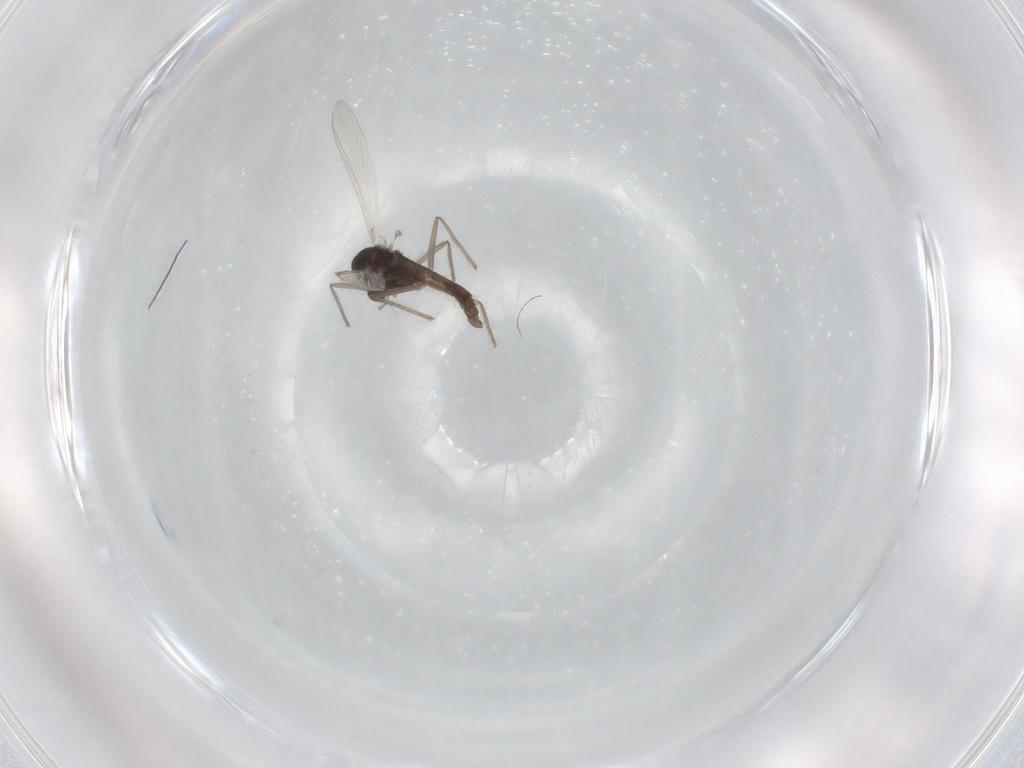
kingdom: Animalia
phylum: Arthropoda
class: Insecta
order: Diptera
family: Chironomidae
